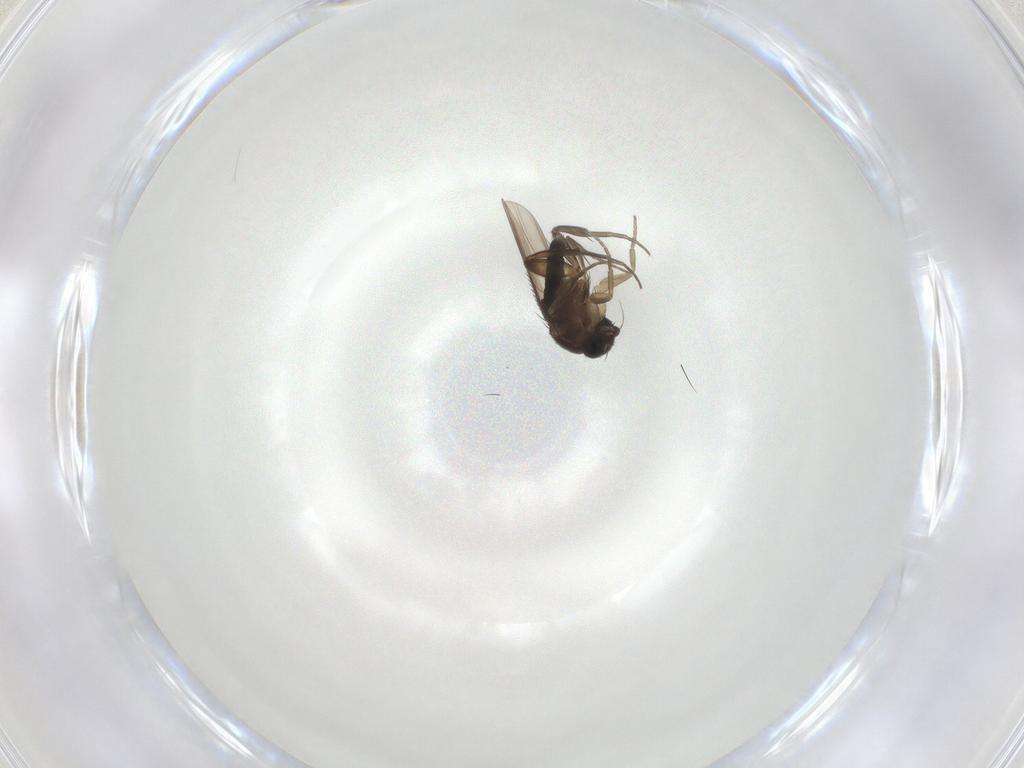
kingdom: Animalia
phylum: Arthropoda
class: Insecta
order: Diptera
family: Phoridae
